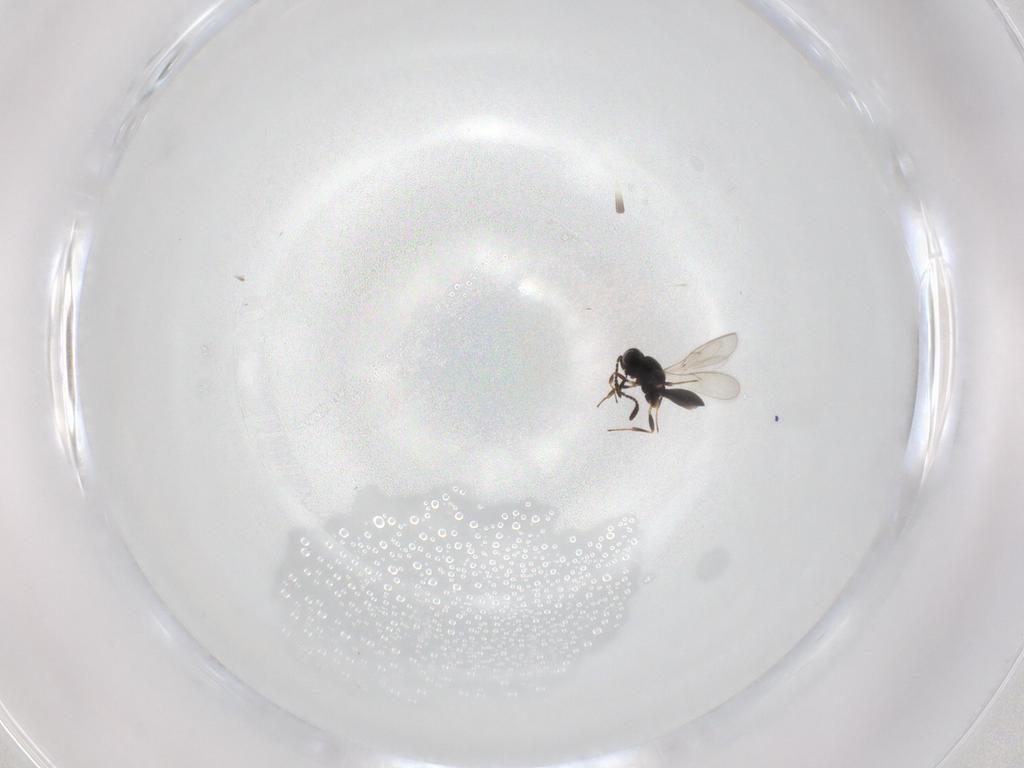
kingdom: Animalia
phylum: Arthropoda
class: Insecta
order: Hymenoptera
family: Scelionidae
